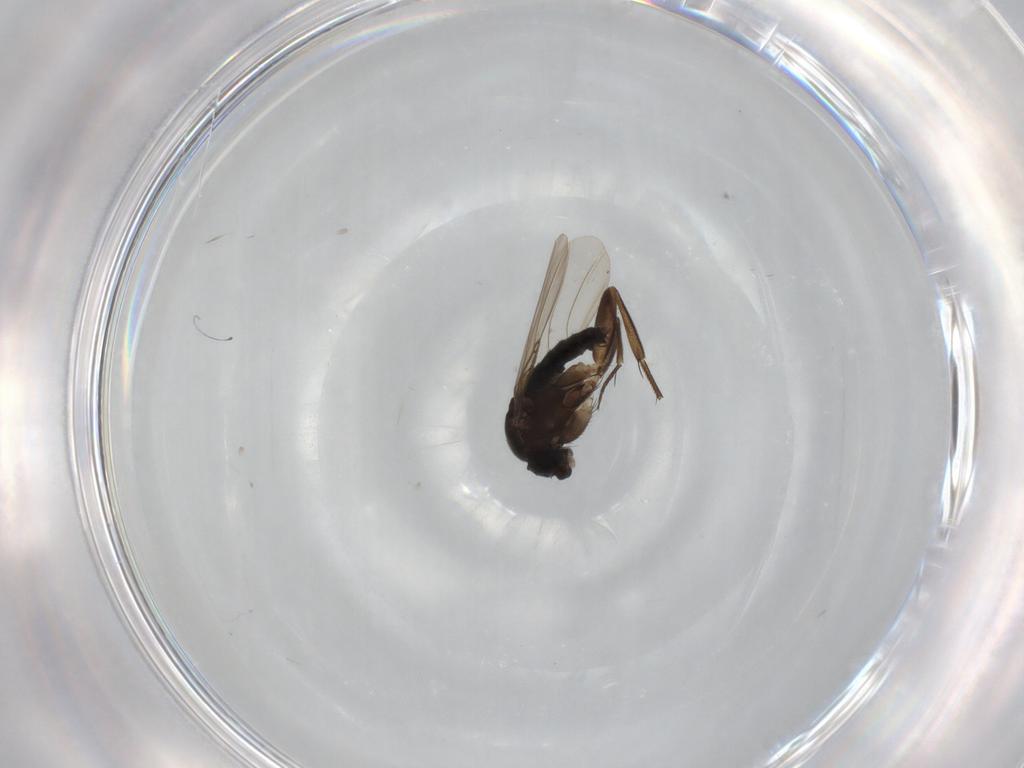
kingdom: Animalia
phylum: Arthropoda
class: Insecta
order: Diptera
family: Phoridae
